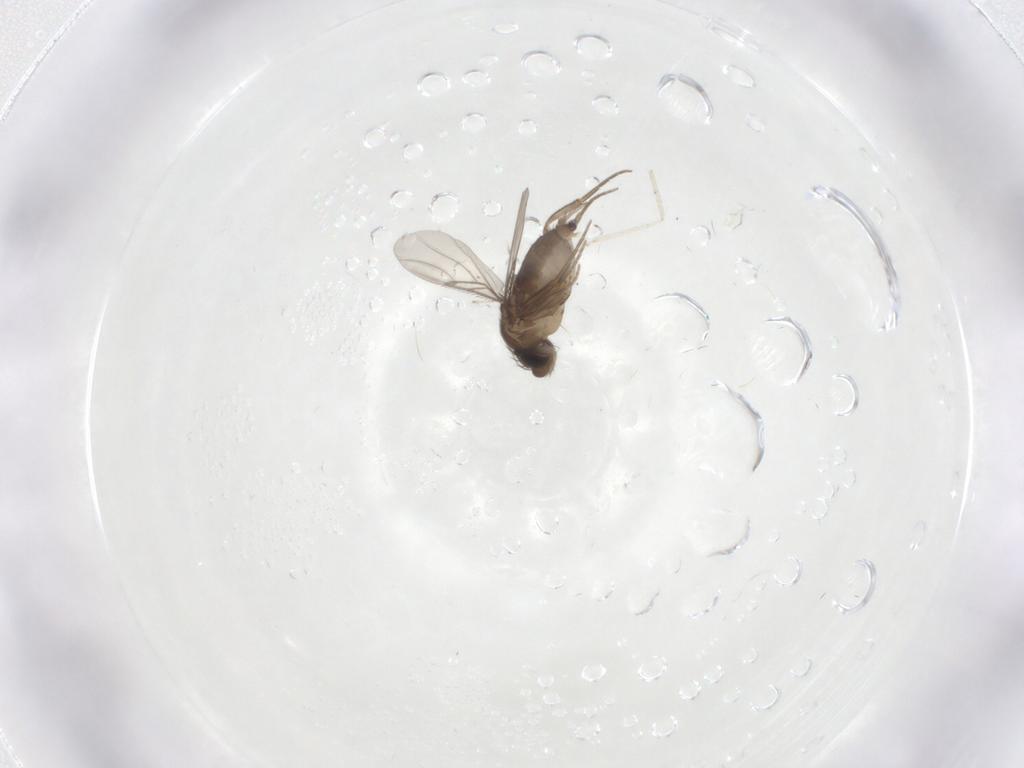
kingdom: Animalia
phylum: Arthropoda
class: Insecta
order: Diptera
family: Phoridae
